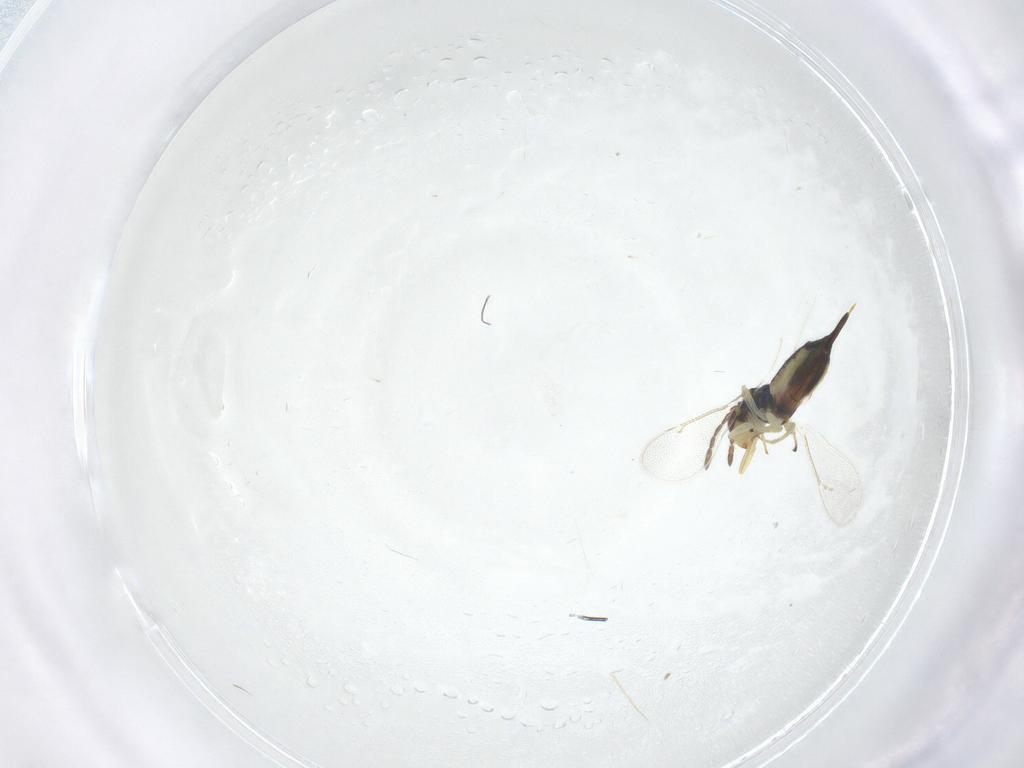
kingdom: Animalia
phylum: Arthropoda
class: Insecta
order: Hymenoptera
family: Eulophidae
